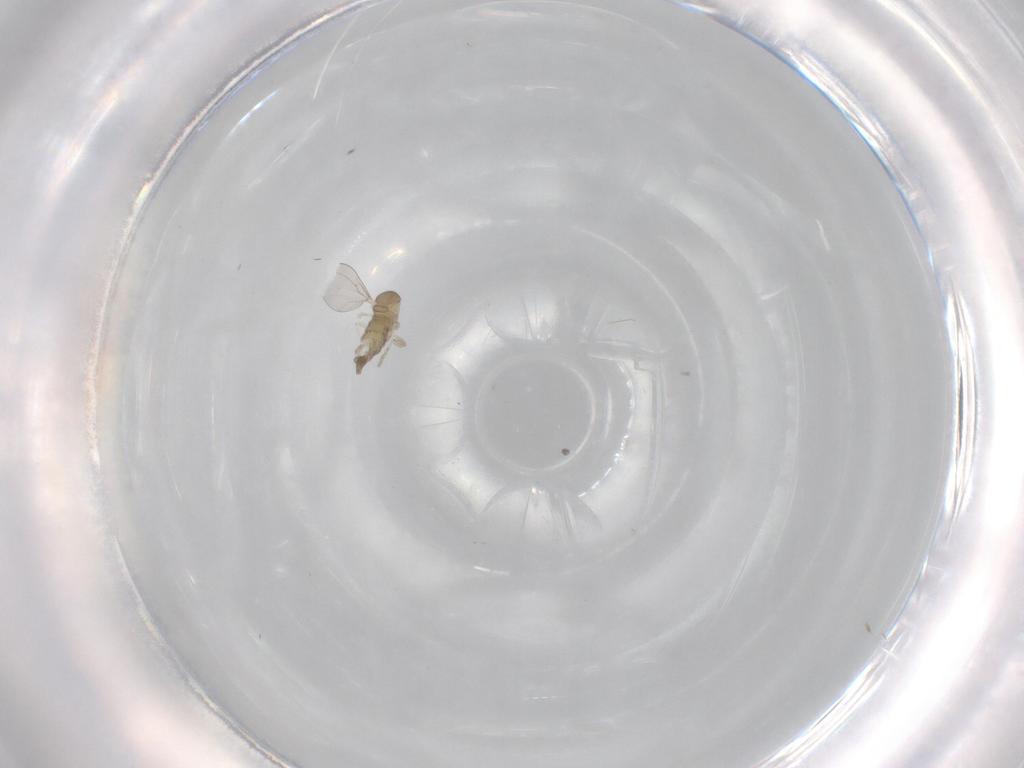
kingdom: Animalia
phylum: Arthropoda
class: Insecta
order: Diptera
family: Cecidomyiidae
